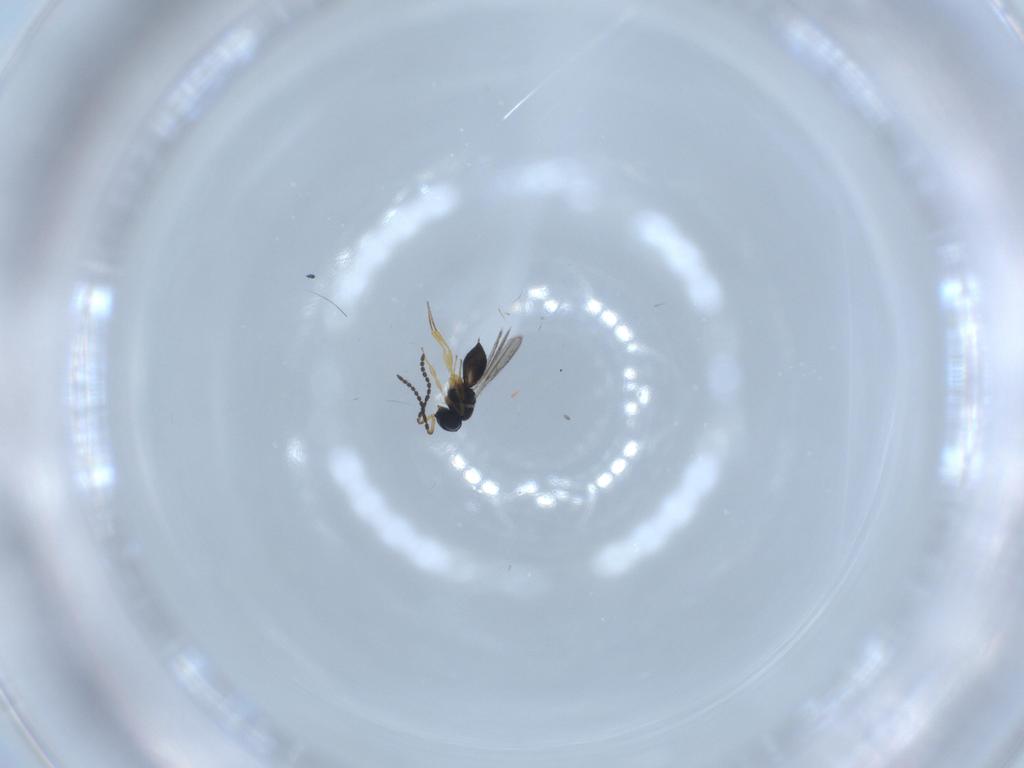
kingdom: Animalia
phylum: Arthropoda
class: Insecta
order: Hymenoptera
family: Scelionidae
